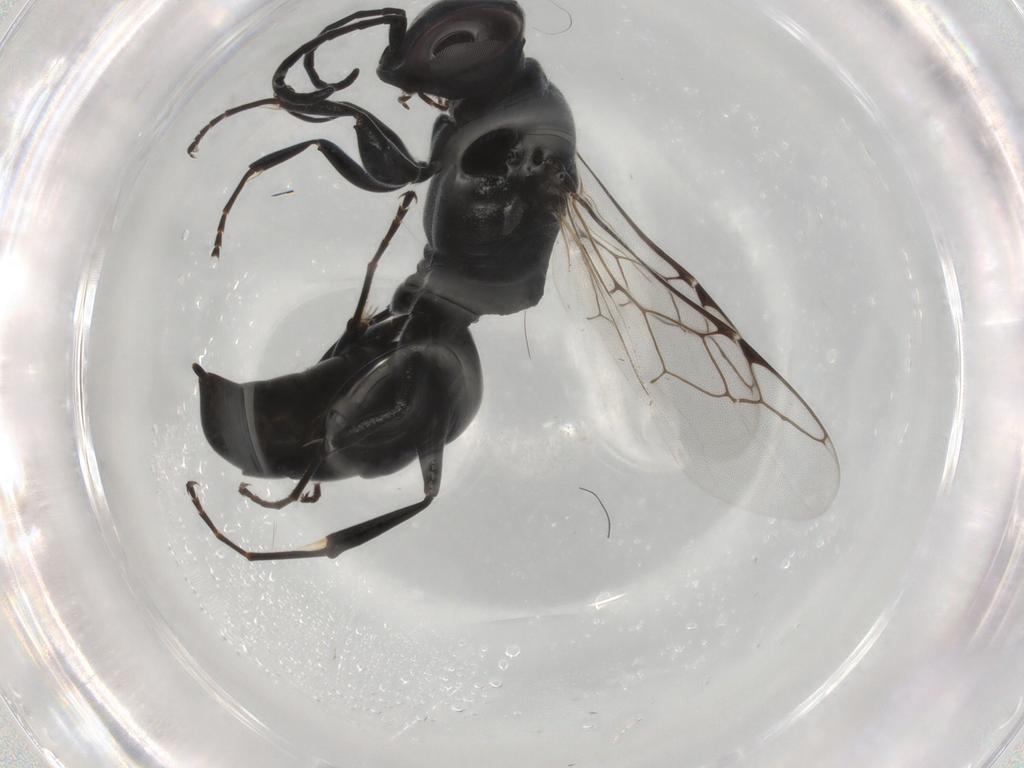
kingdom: Animalia
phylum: Arthropoda
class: Insecta
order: Hymenoptera
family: Crabronidae
